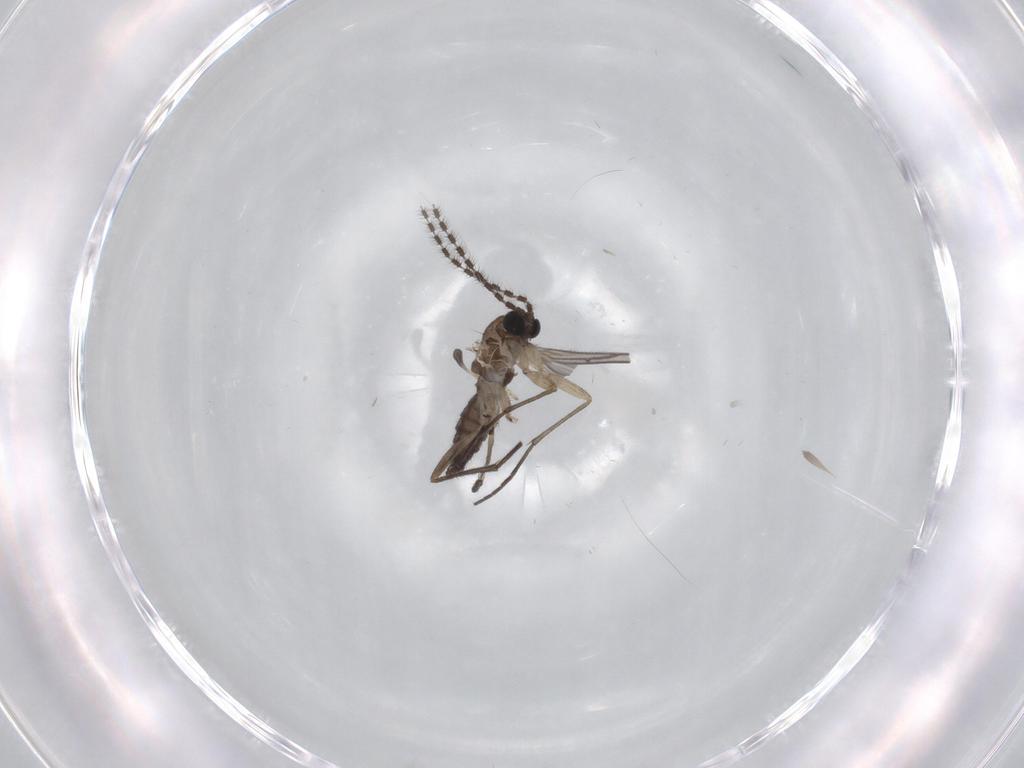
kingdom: Animalia
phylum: Arthropoda
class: Insecta
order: Diptera
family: Sciaridae
